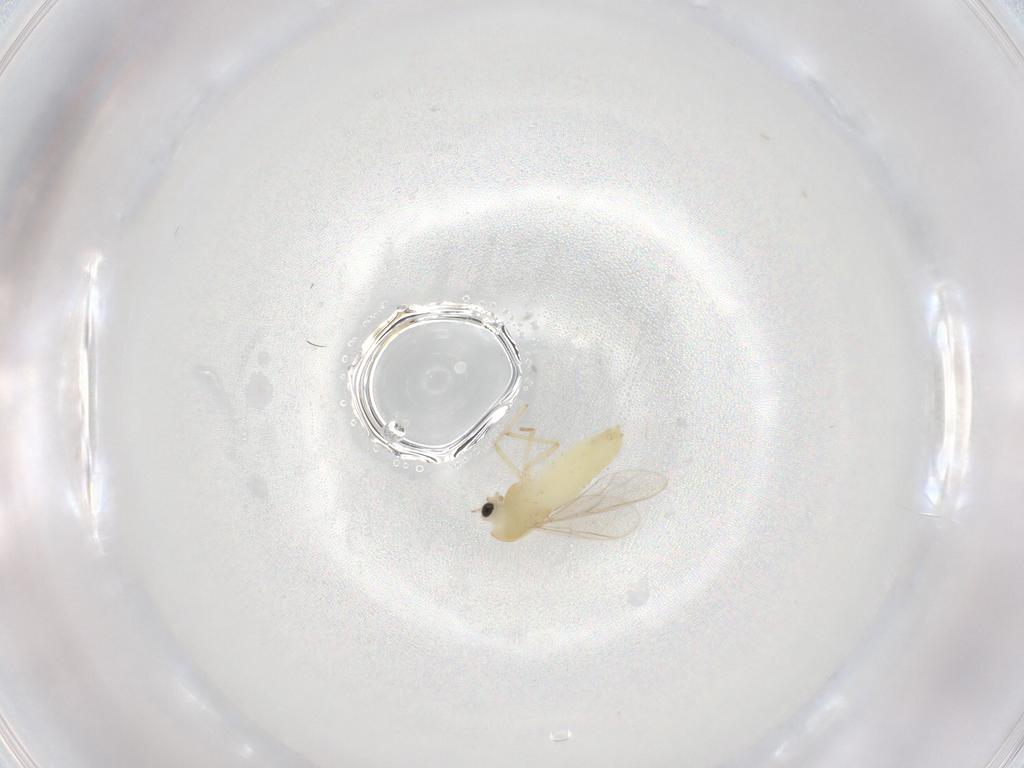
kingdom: Animalia
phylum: Arthropoda
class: Insecta
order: Diptera
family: Chironomidae
